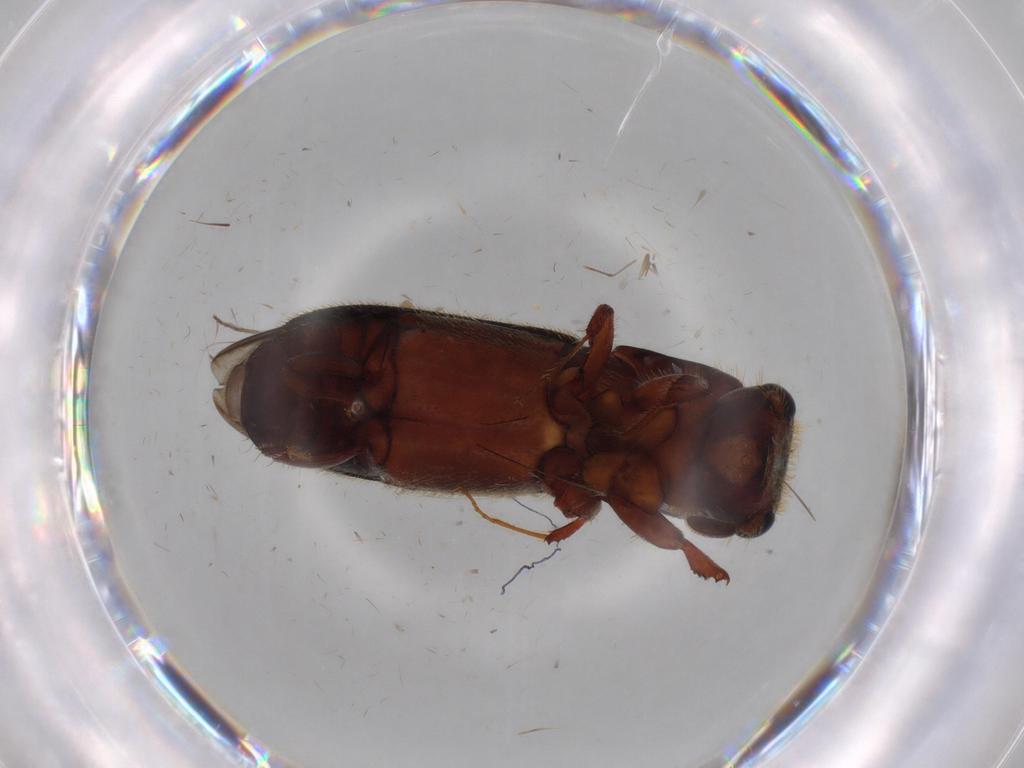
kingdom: Animalia
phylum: Arthropoda
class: Insecta
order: Coleoptera
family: Curculionidae
